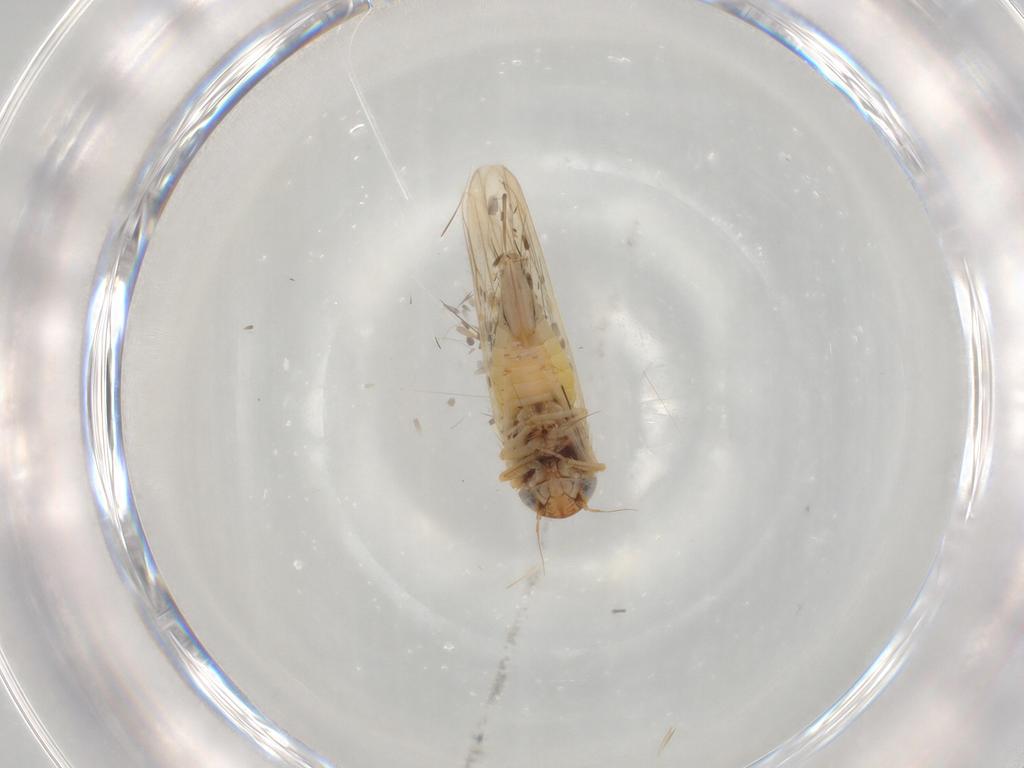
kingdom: Animalia
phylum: Arthropoda
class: Insecta
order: Hemiptera
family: Cicadellidae
